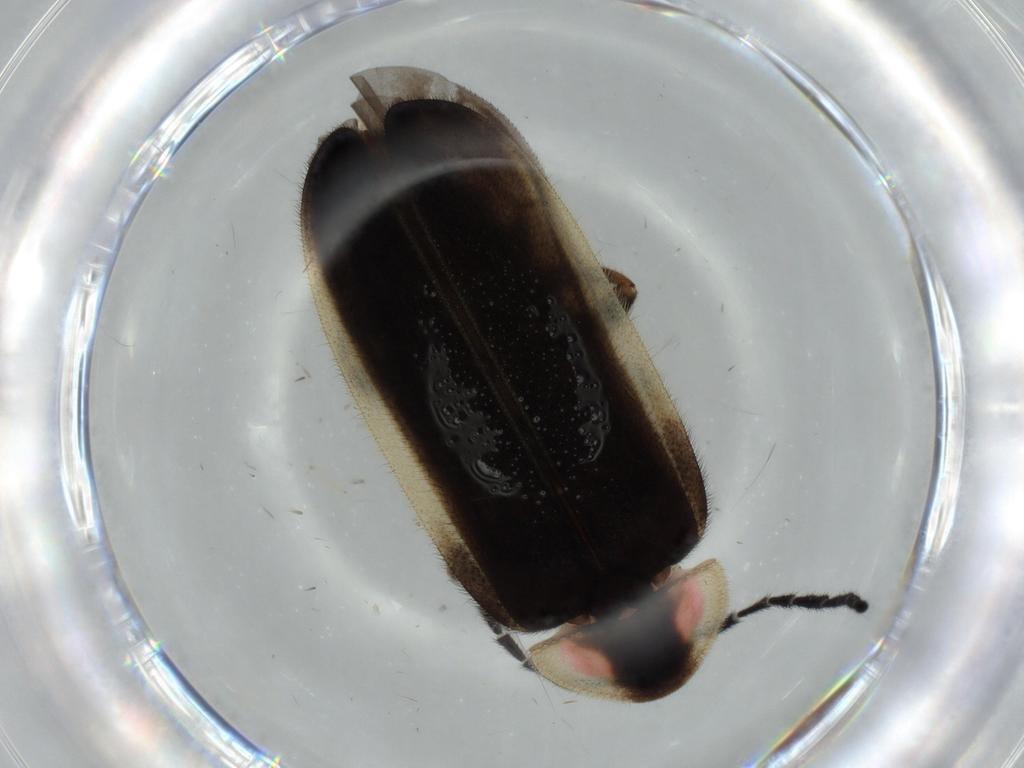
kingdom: Animalia
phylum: Arthropoda
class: Insecta
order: Coleoptera
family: Lampyridae
